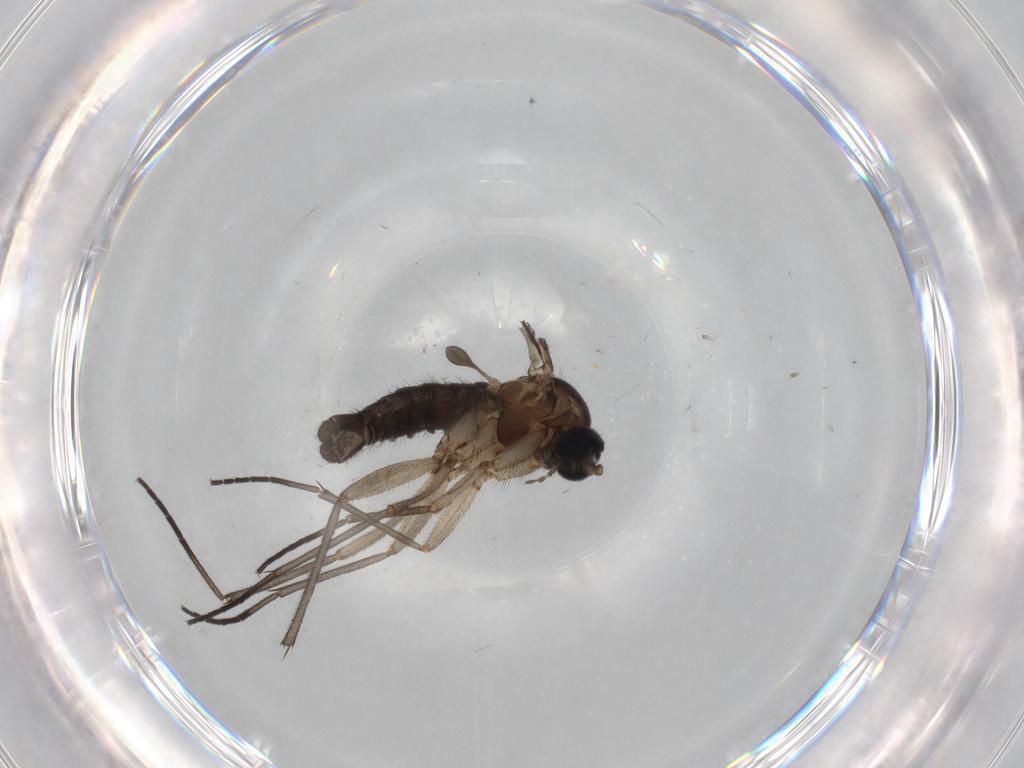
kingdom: Animalia
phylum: Arthropoda
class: Insecta
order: Diptera
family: Sciaridae
